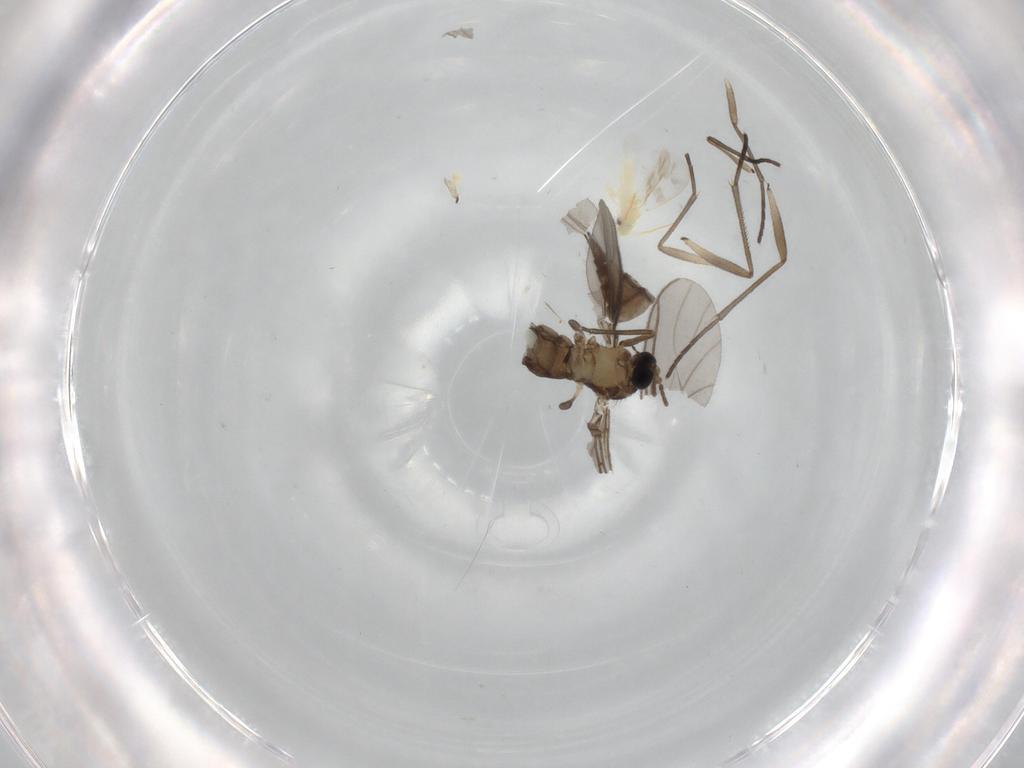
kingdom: Animalia
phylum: Arthropoda
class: Insecta
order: Diptera
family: Sciaridae
